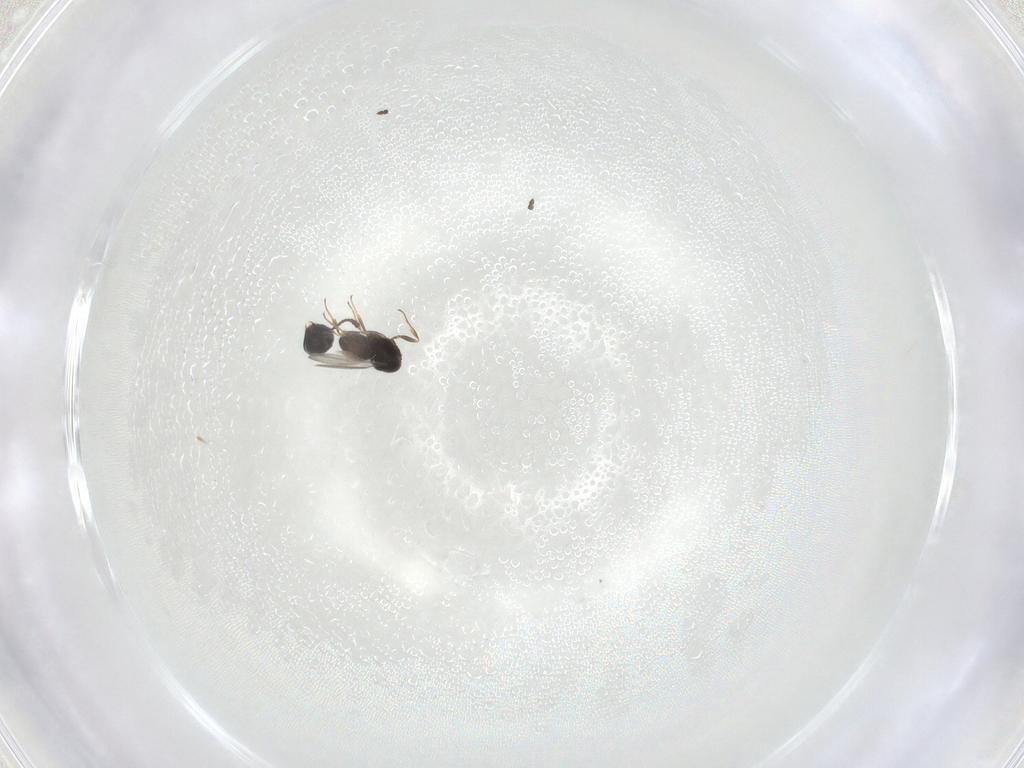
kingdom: Animalia
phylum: Arthropoda
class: Insecta
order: Hymenoptera
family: Scelionidae
